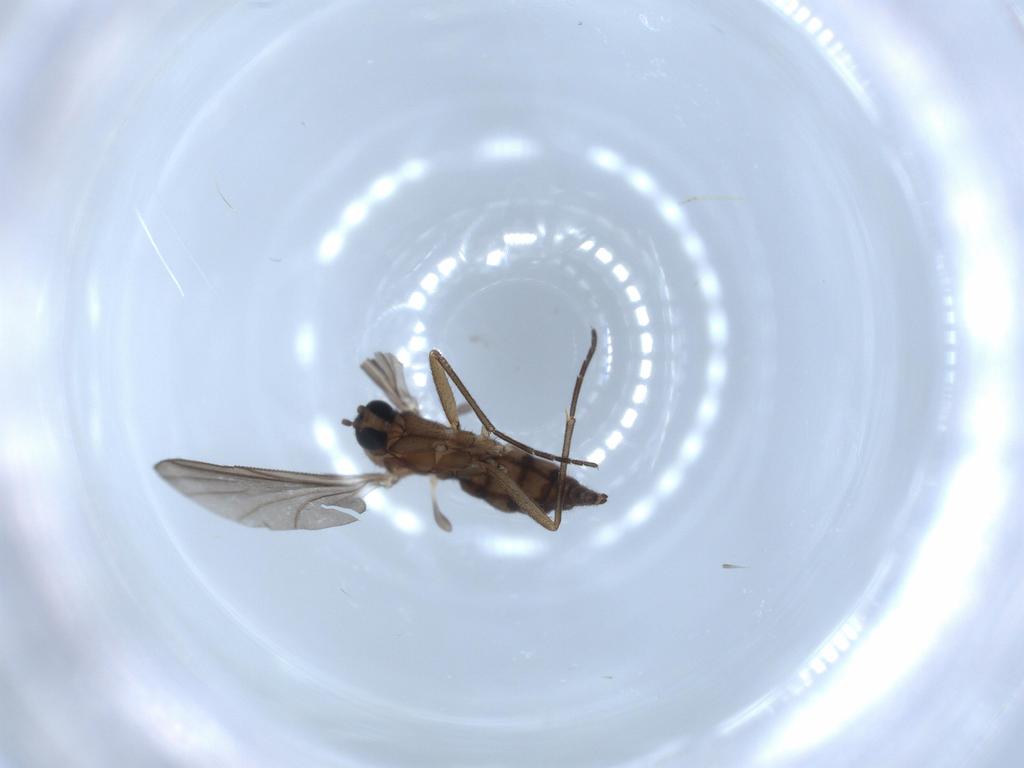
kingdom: Animalia
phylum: Arthropoda
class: Insecta
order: Diptera
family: Sciaridae
